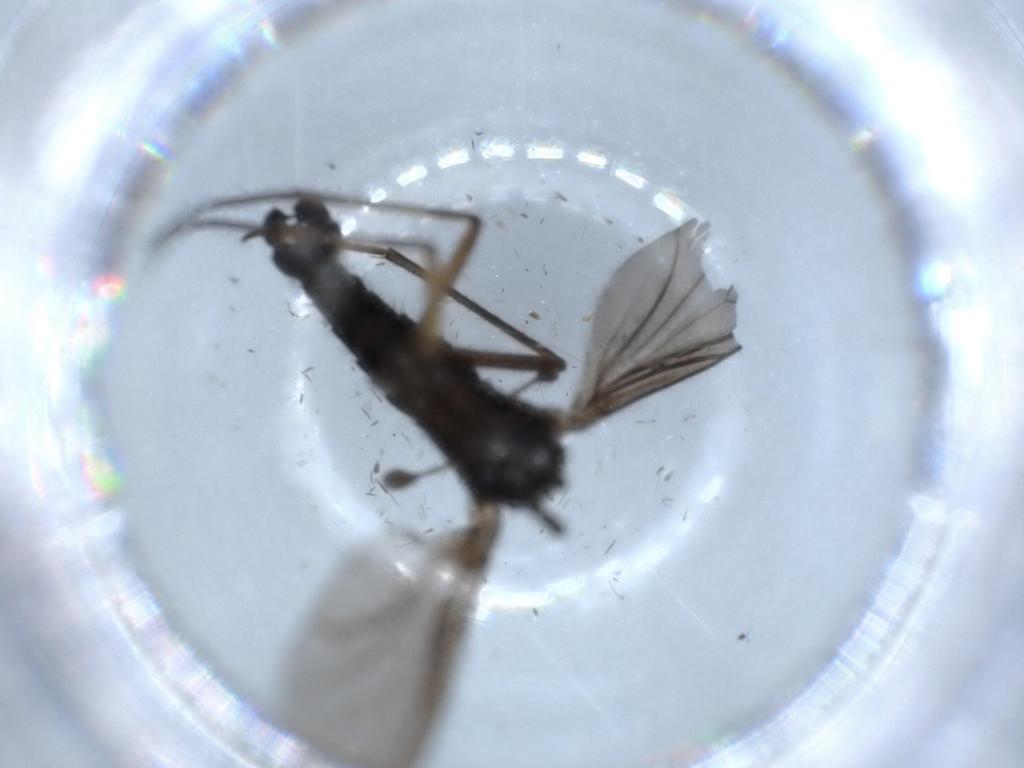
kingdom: Animalia
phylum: Arthropoda
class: Insecta
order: Diptera
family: Sciaridae
